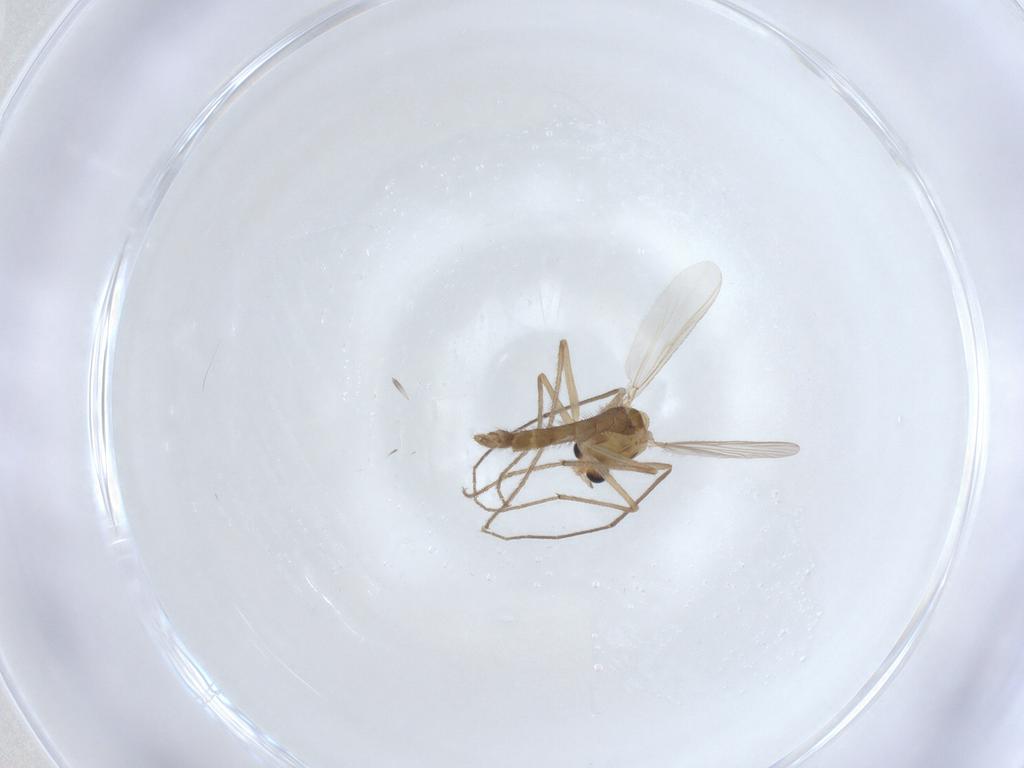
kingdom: Animalia
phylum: Arthropoda
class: Insecta
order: Diptera
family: Chironomidae
